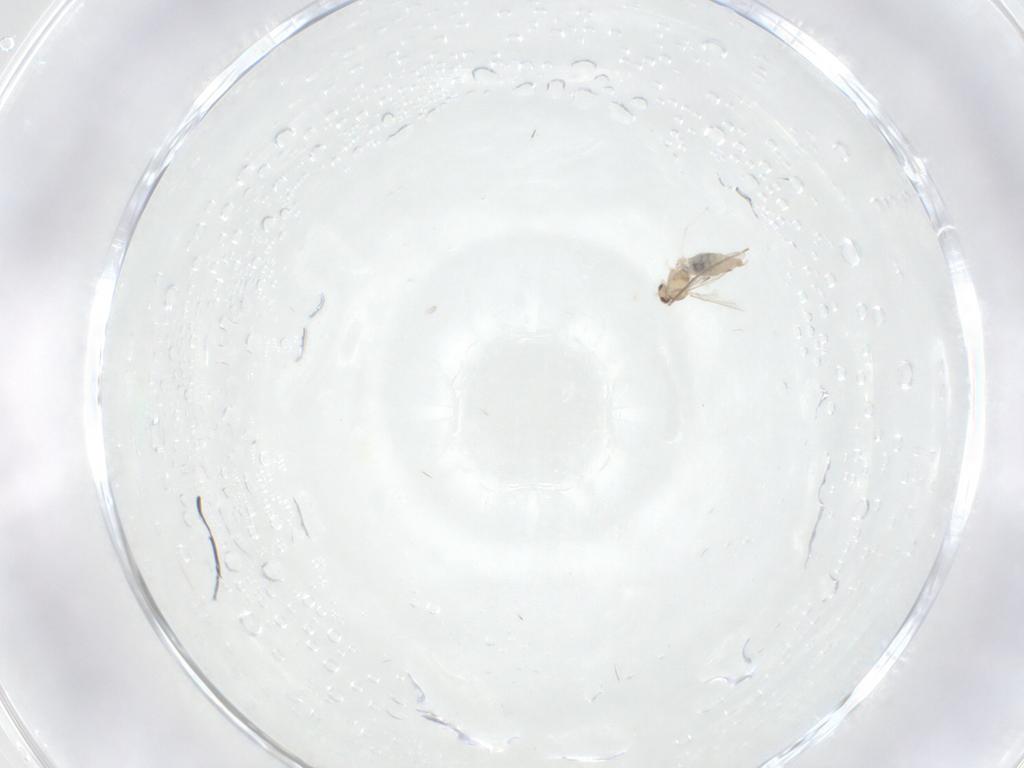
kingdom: Animalia
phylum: Arthropoda
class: Insecta
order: Diptera
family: Cecidomyiidae
